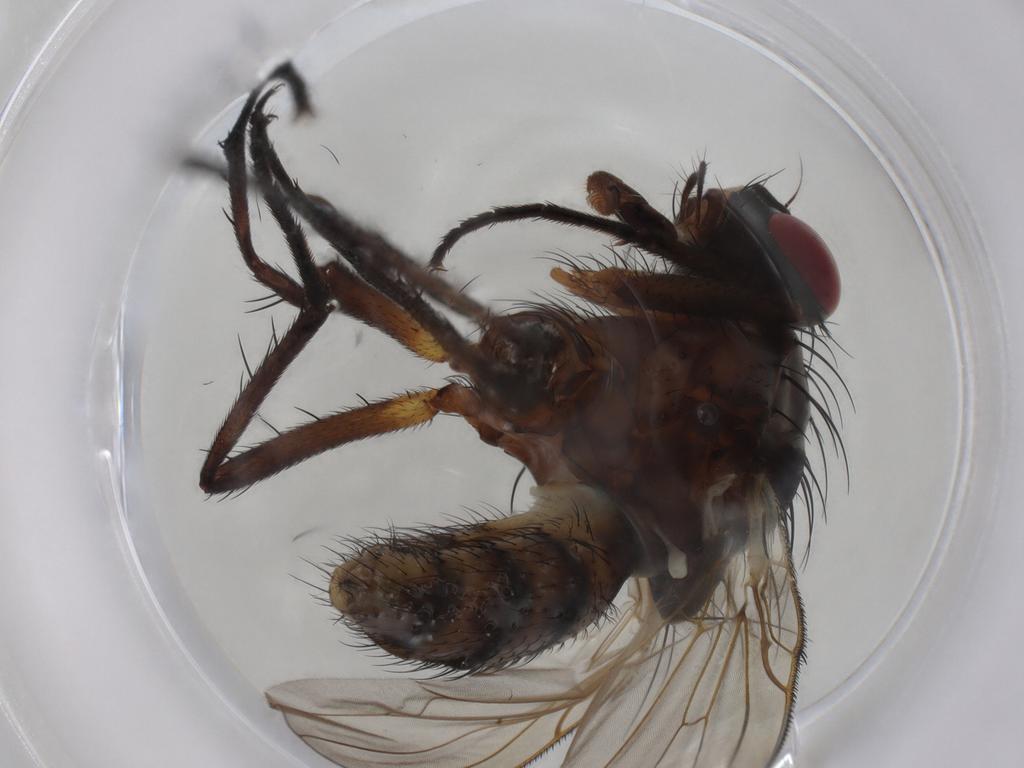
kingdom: Animalia
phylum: Arthropoda
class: Insecta
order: Diptera
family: Anthomyiidae
